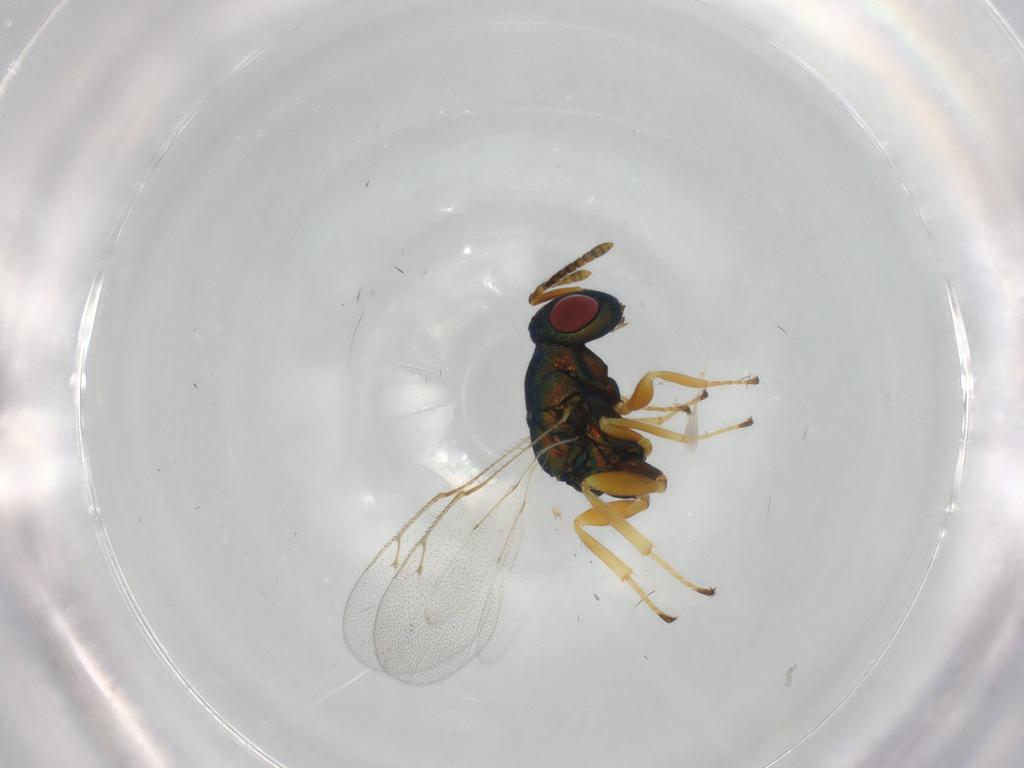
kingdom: Animalia
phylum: Arthropoda
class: Insecta
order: Hymenoptera
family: Pteromalidae
